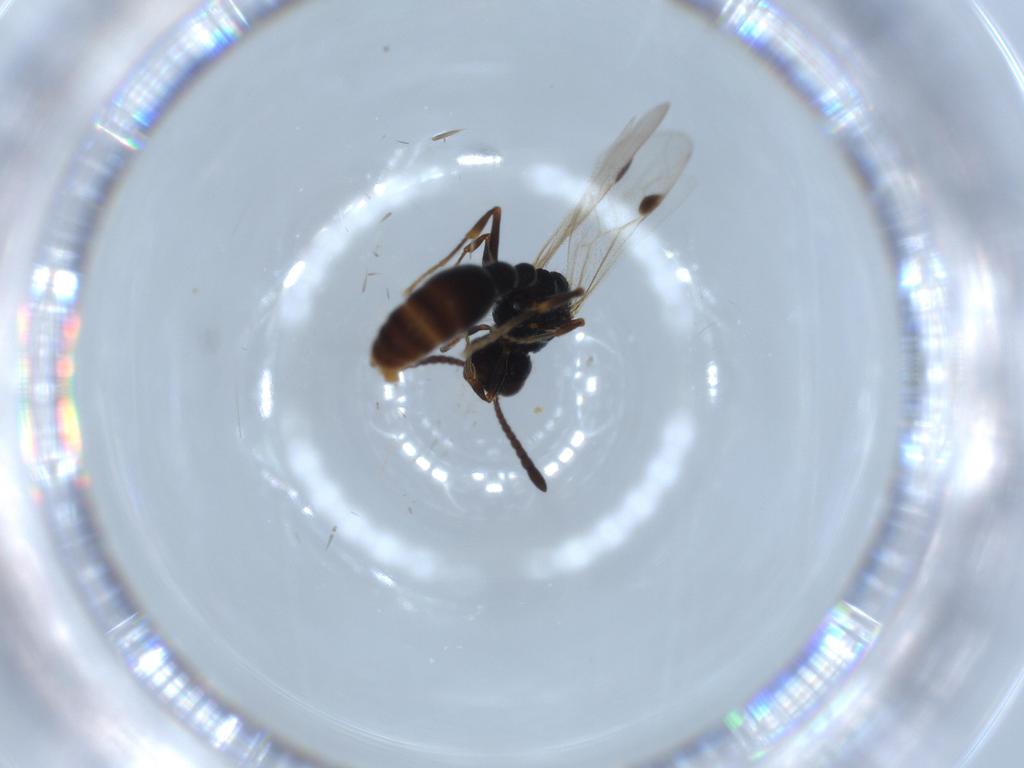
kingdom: Animalia
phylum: Arthropoda
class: Insecta
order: Hymenoptera
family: Formicidae
